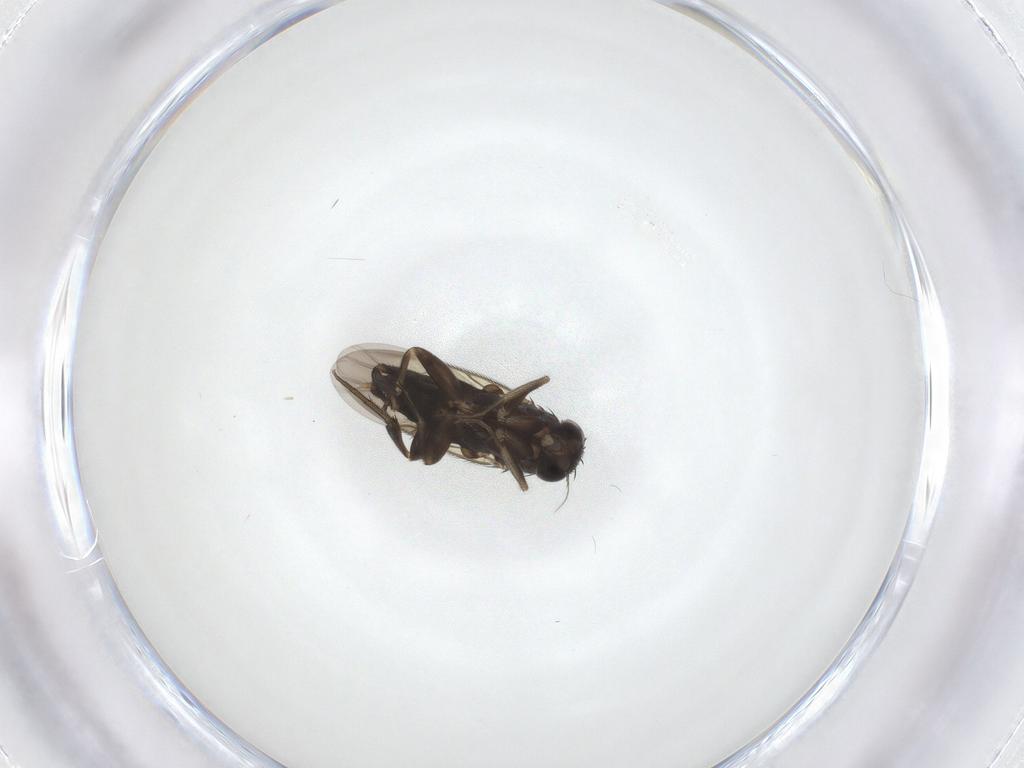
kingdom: Animalia
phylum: Arthropoda
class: Insecta
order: Diptera
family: Phoridae
